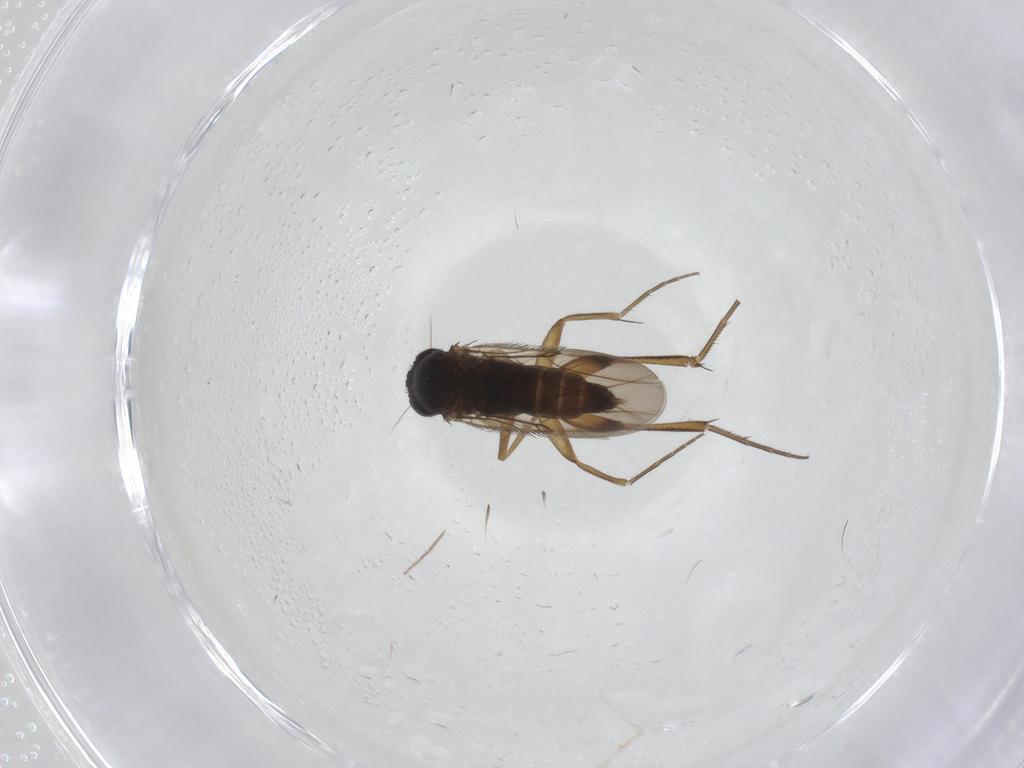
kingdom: Animalia
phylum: Arthropoda
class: Insecta
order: Diptera
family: Phoridae
